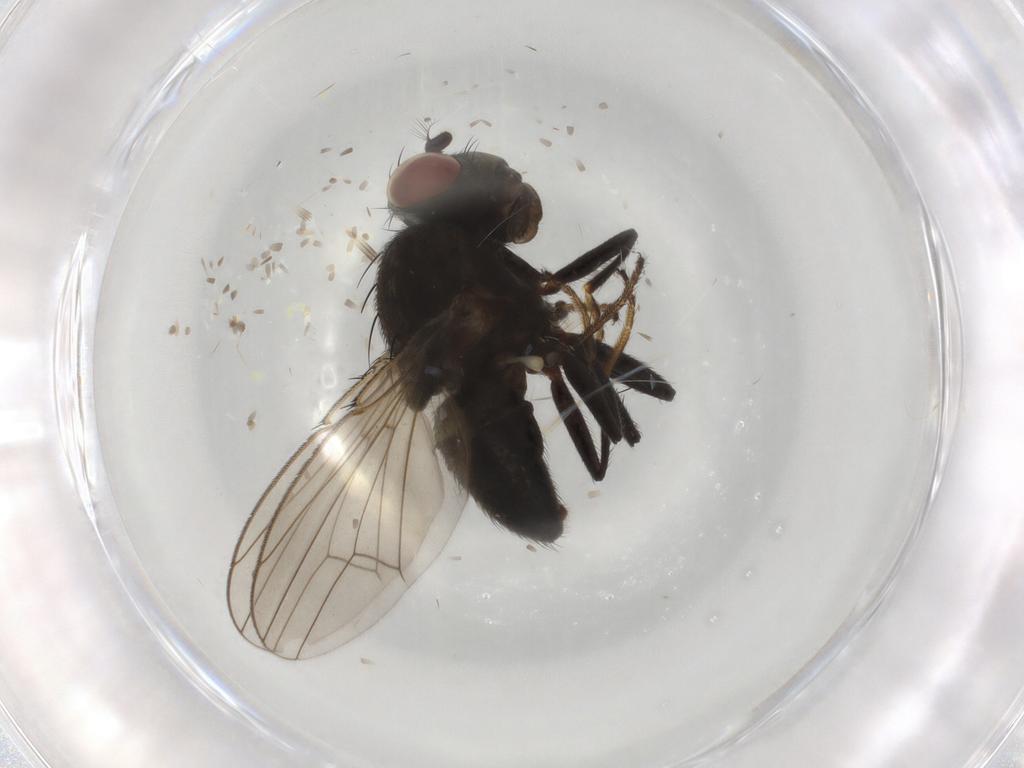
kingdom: Animalia
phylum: Arthropoda
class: Insecta
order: Diptera
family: Ephydridae
